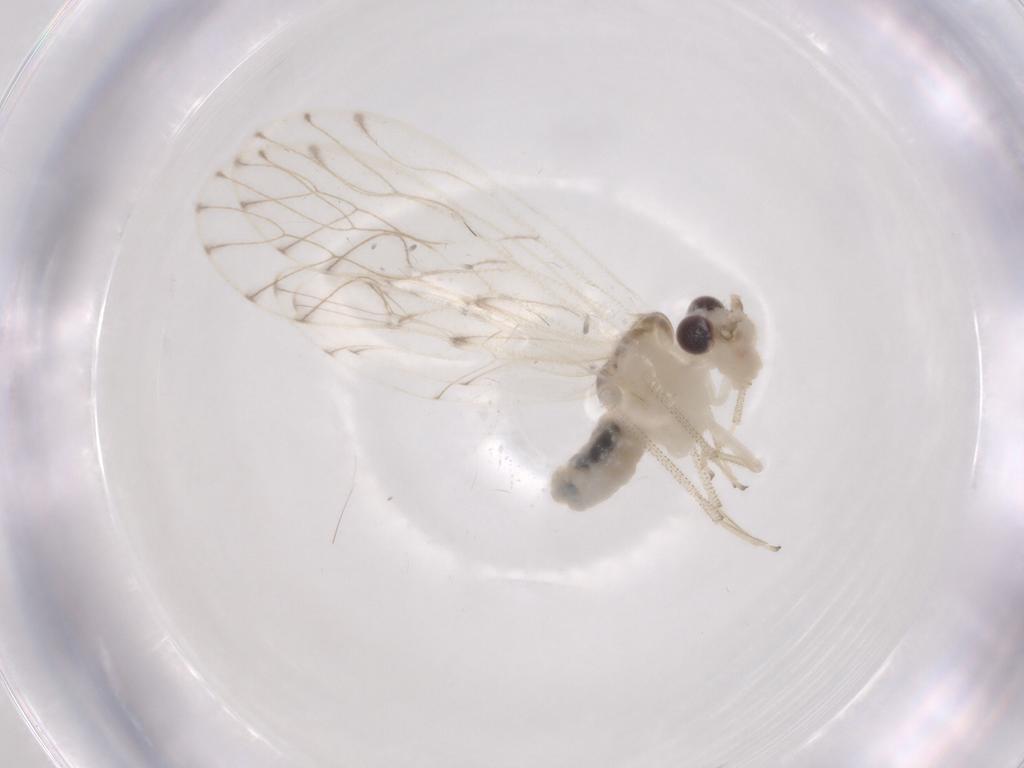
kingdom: Animalia
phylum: Arthropoda
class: Insecta
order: Psocodea
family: Philotarsidae
